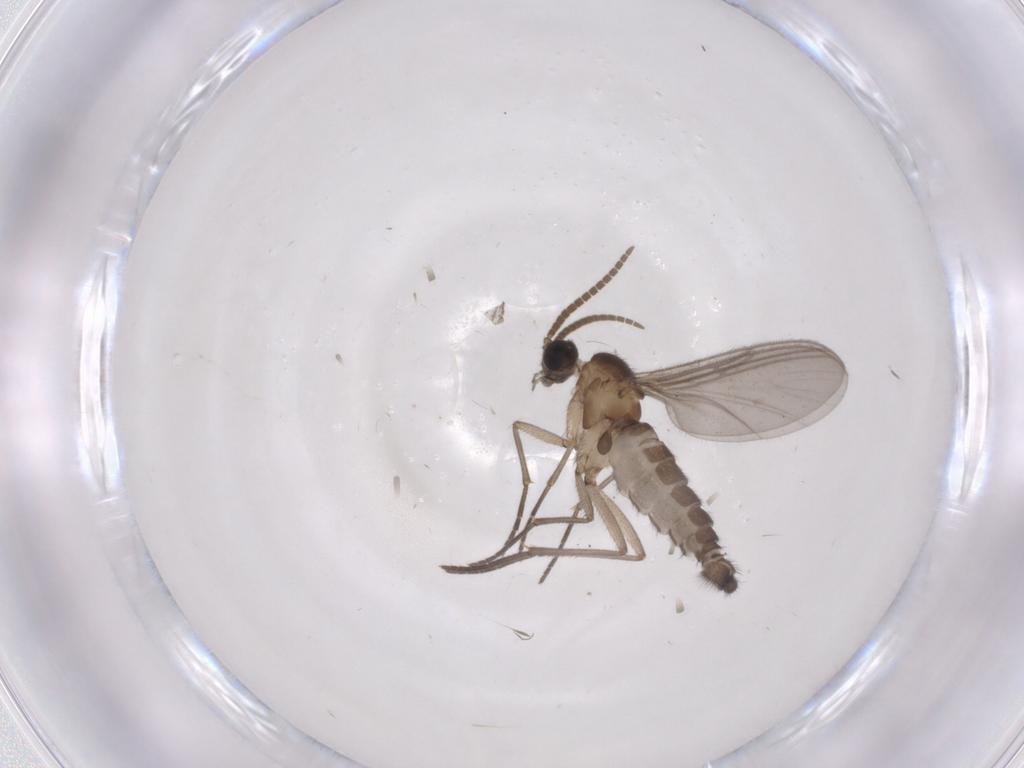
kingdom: Animalia
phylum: Arthropoda
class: Insecta
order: Diptera
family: Cecidomyiidae
